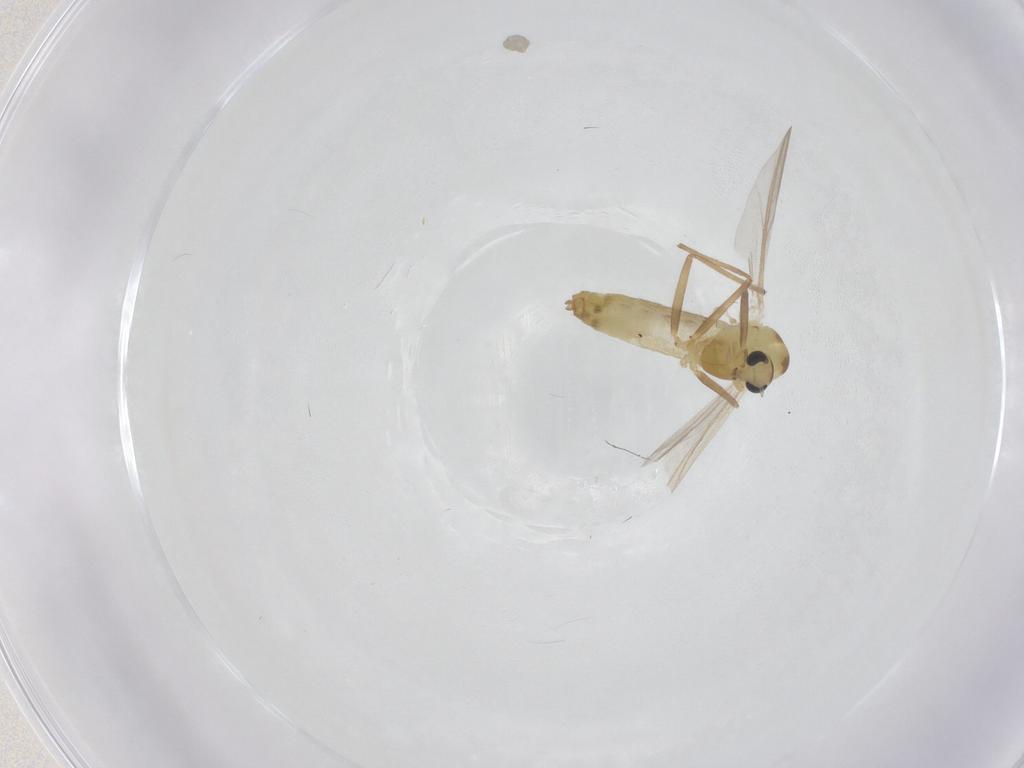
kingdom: Animalia
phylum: Arthropoda
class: Insecta
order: Diptera
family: Chironomidae
